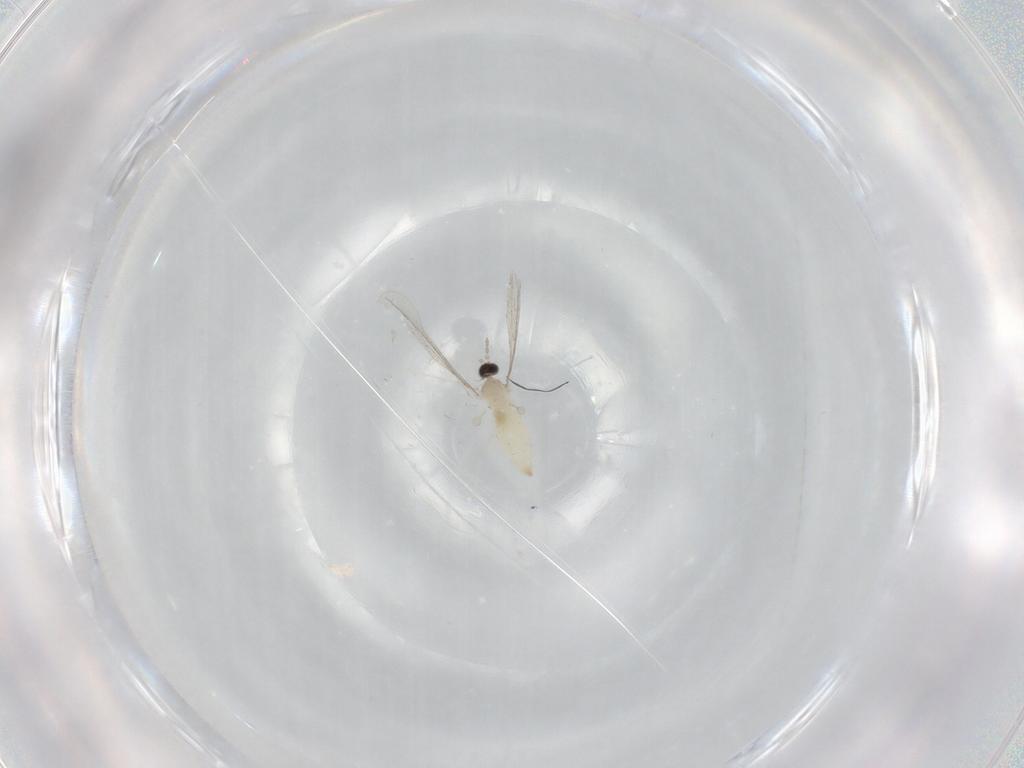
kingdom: Animalia
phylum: Arthropoda
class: Insecta
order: Diptera
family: Cecidomyiidae
